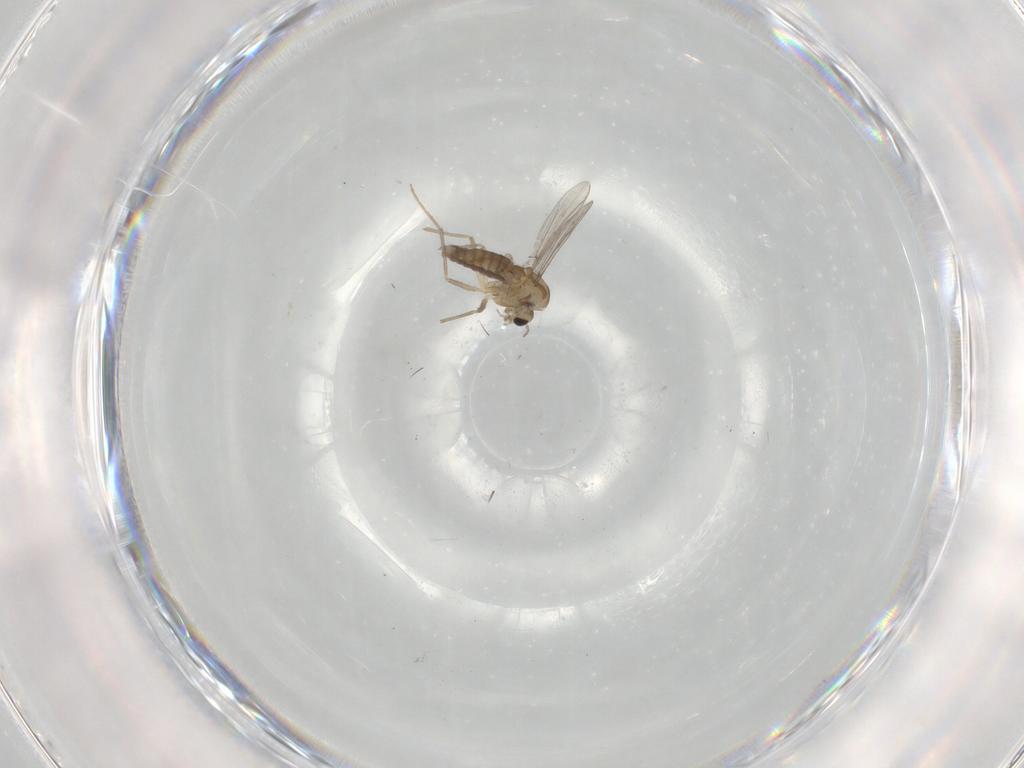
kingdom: Animalia
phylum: Arthropoda
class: Insecta
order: Diptera
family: Chironomidae
